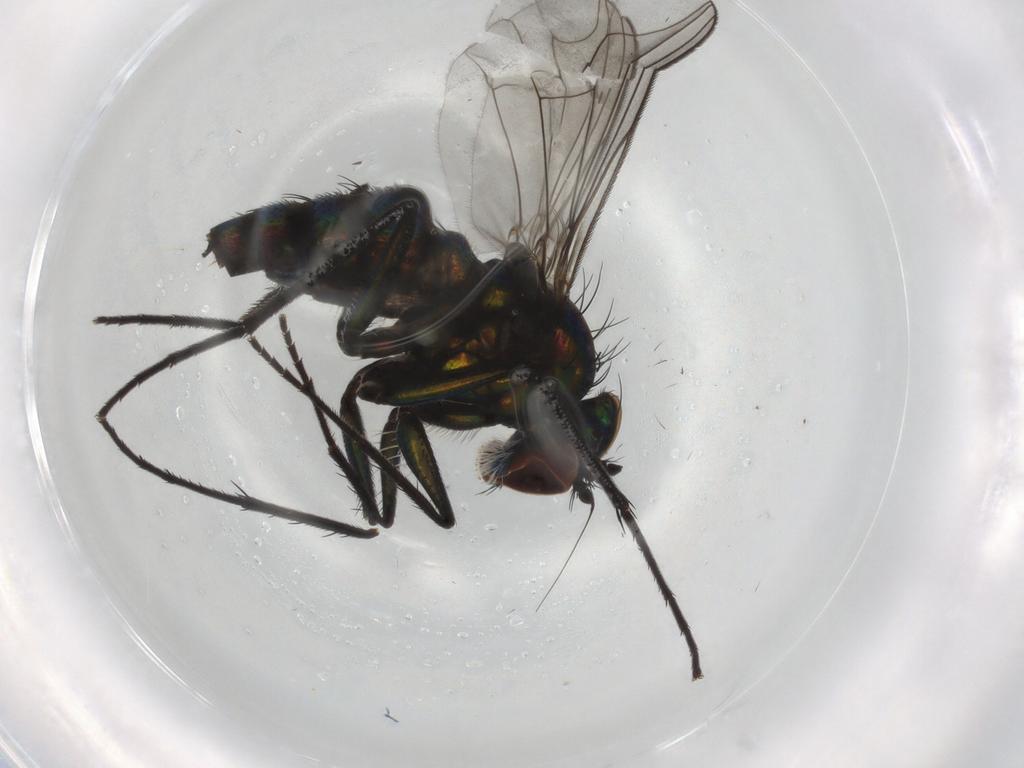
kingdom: Animalia
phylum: Arthropoda
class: Insecta
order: Diptera
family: Dolichopodidae
